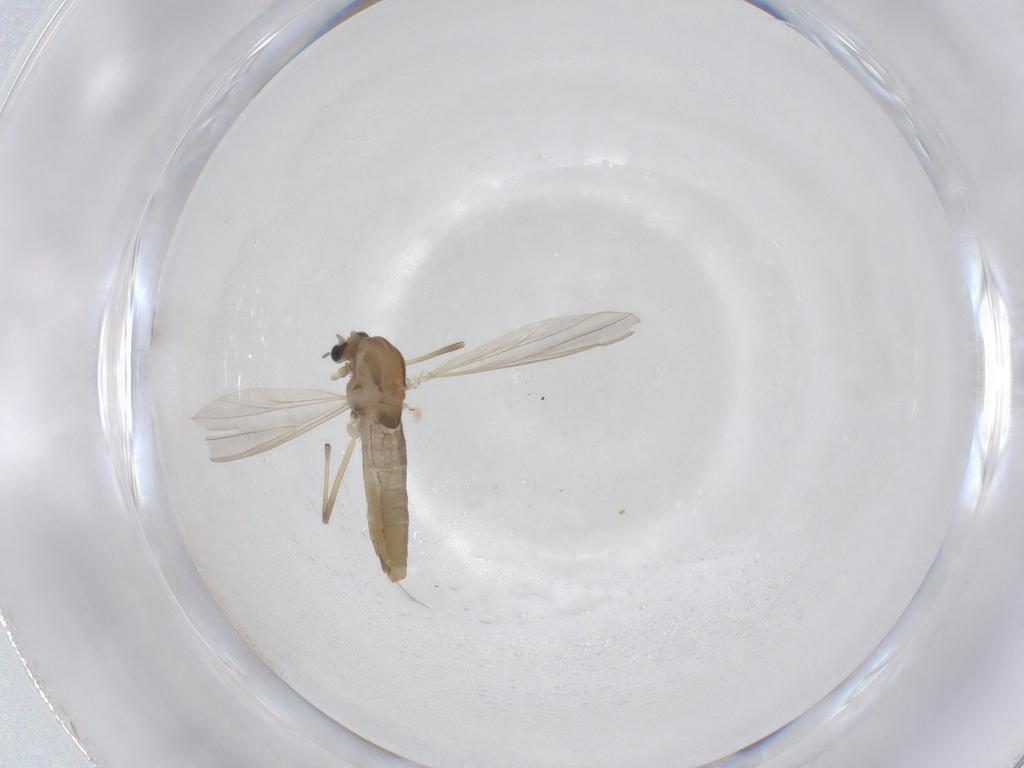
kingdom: Animalia
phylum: Arthropoda
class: Insecta
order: Diptera
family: Chironomidae
